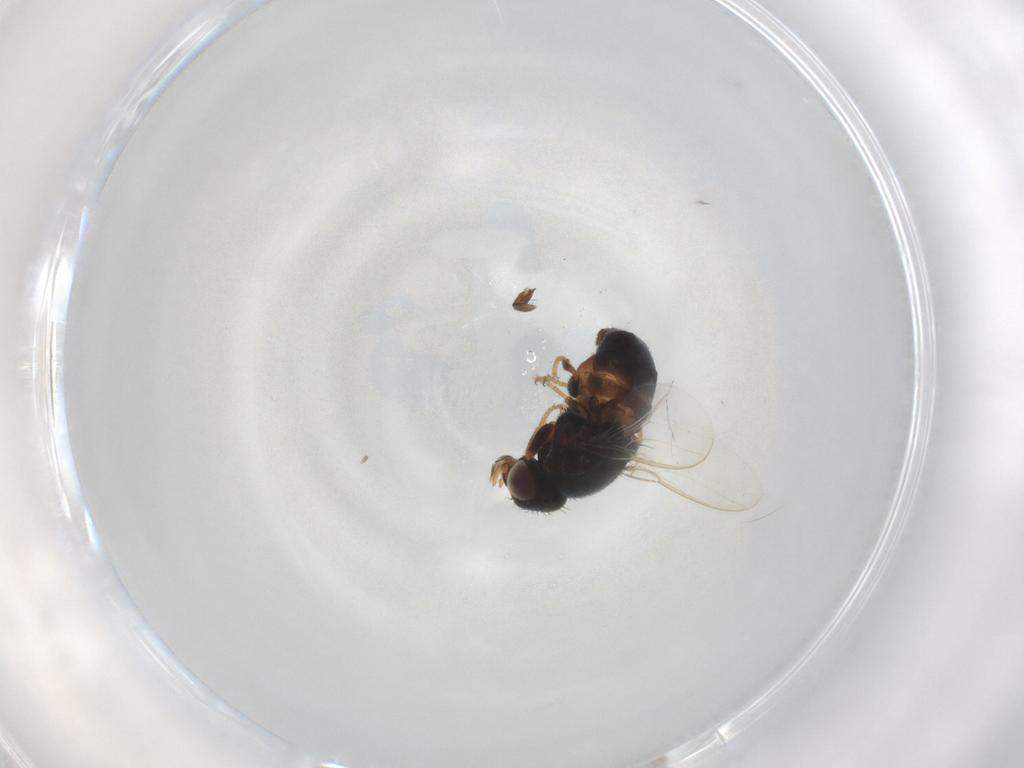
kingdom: Animalia
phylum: Arthropoda
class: Insecta
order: Diptera
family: Chloropidae
